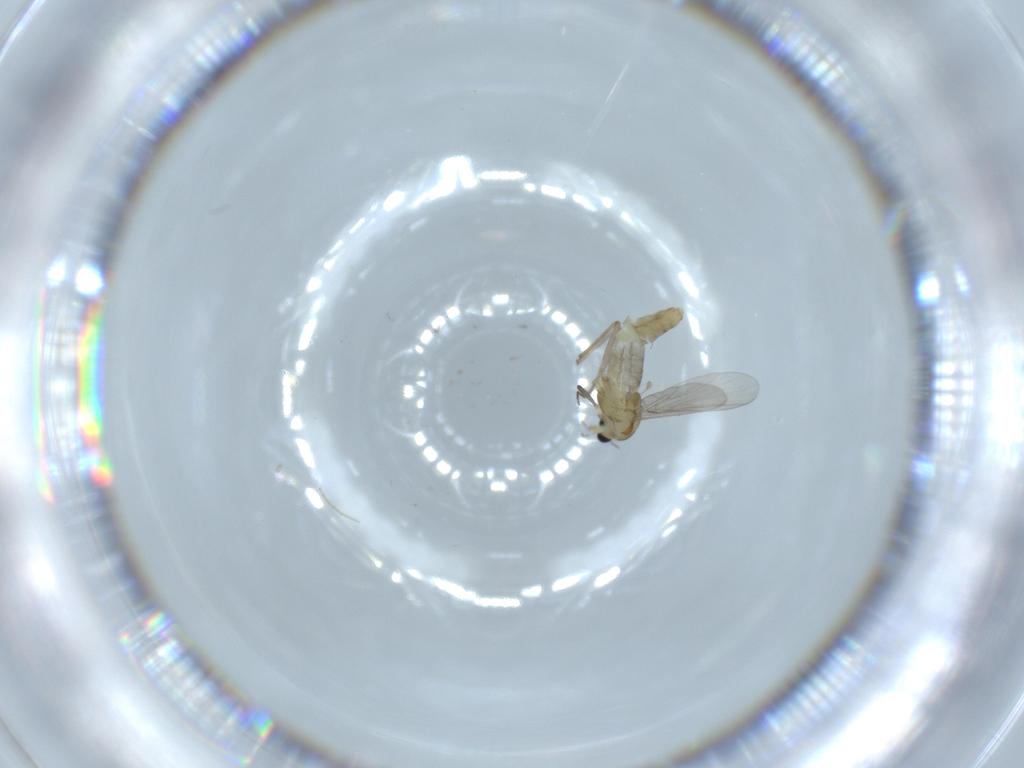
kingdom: Animalia
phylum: Arthropoda
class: Insecta
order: Diptera
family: Chironomidae
